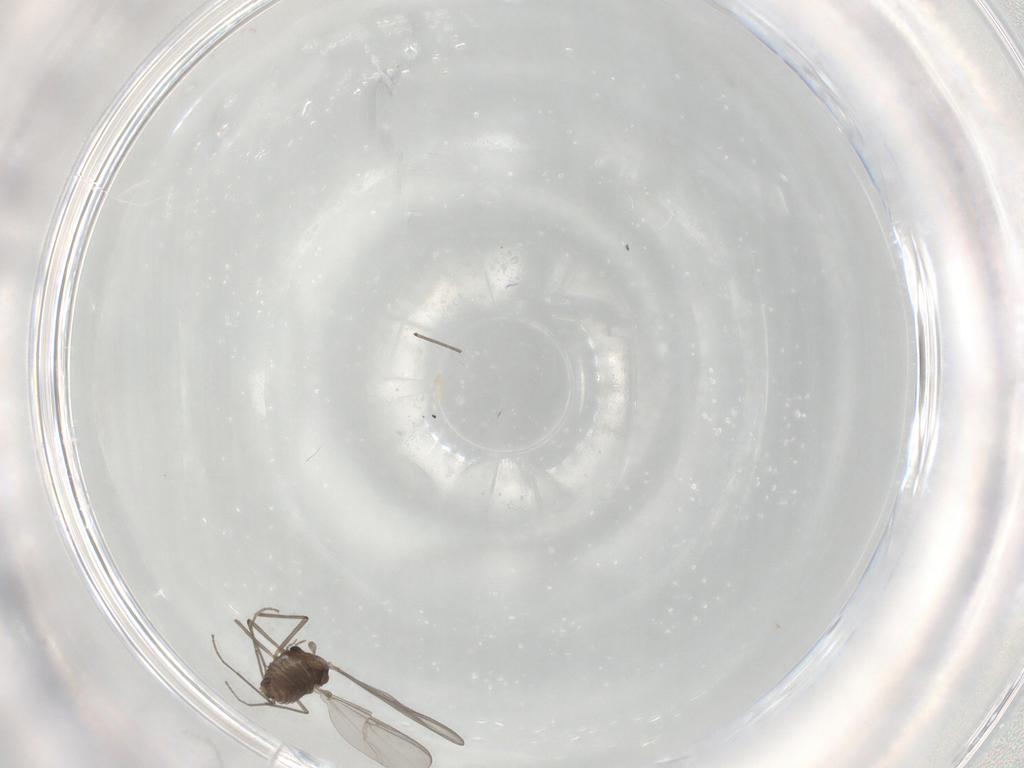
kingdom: Animalia
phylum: Arthropoda
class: Insecta
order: Diptera
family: Chironomidae
